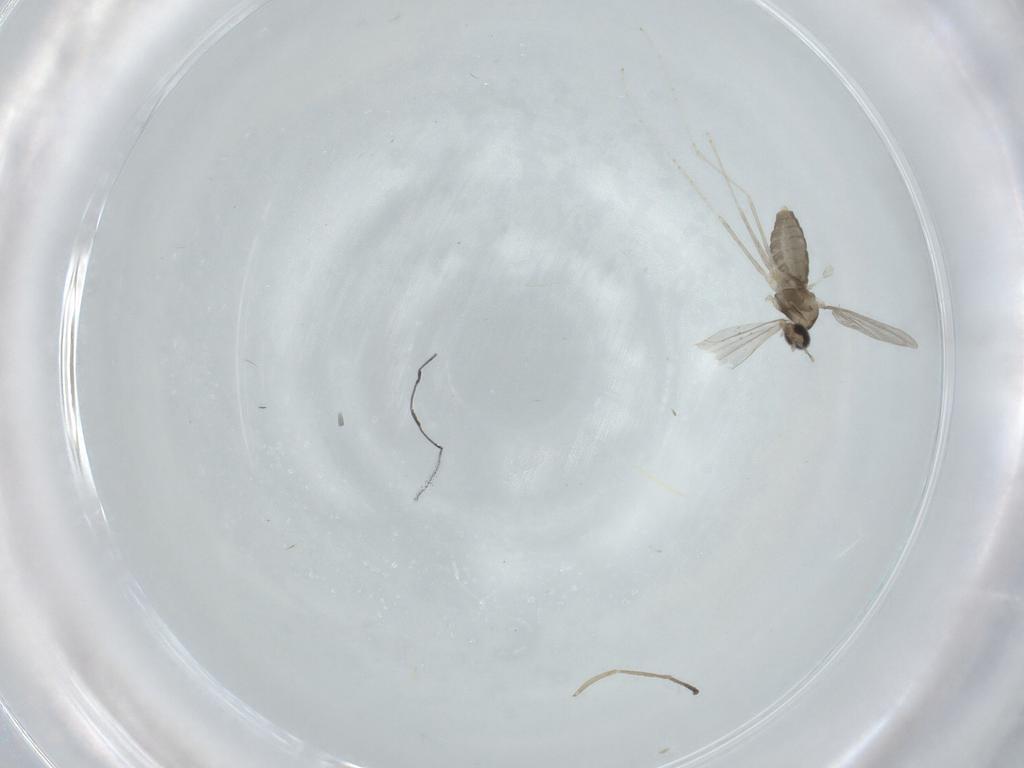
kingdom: Animalia
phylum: Arthropoda
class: Insecta
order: Diptera
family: Cecidomyiidae
